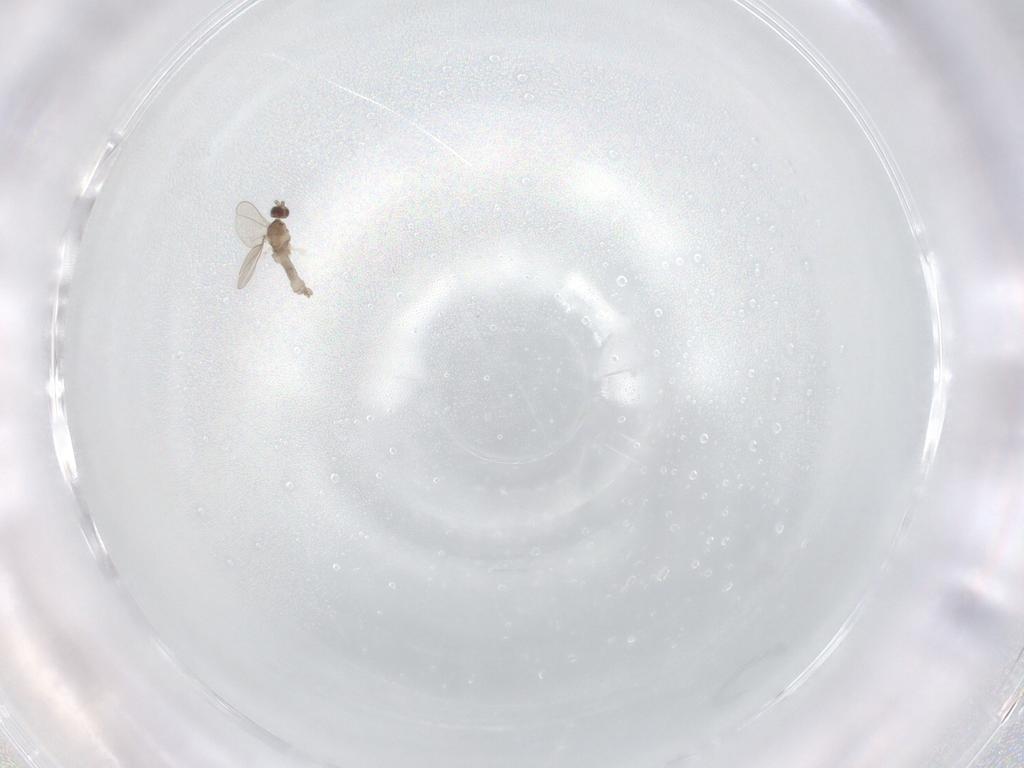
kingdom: Animalia
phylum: Arthropoda
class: Insecta
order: Diptera
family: Cecidomyiidae
